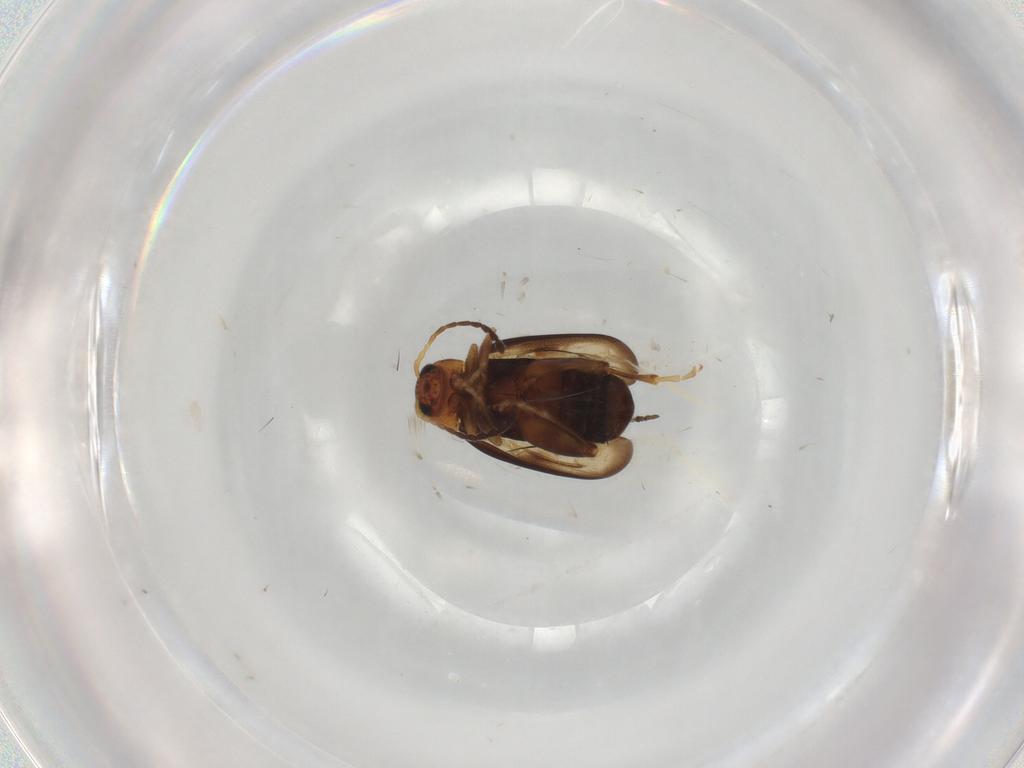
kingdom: Animalia
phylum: Arthropoda
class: Insecta
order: Coleoptera
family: Chrysomelidae
